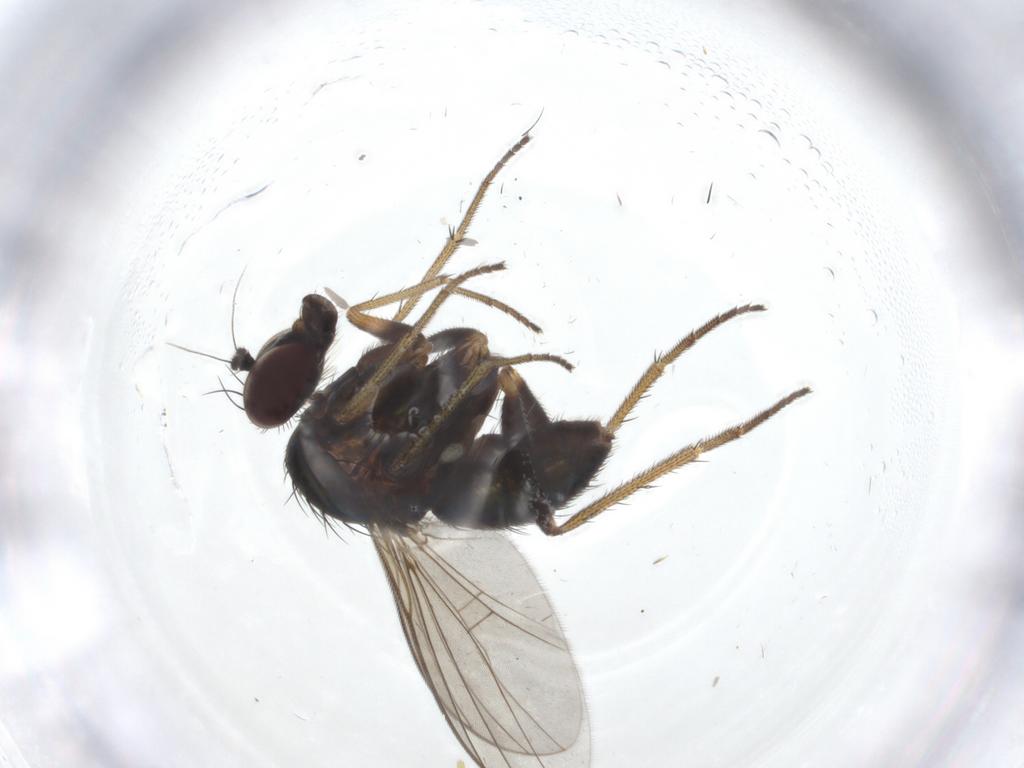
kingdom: Animalia
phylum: Arthropoda
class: Insecta
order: Diptera
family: Dolichopodidae
